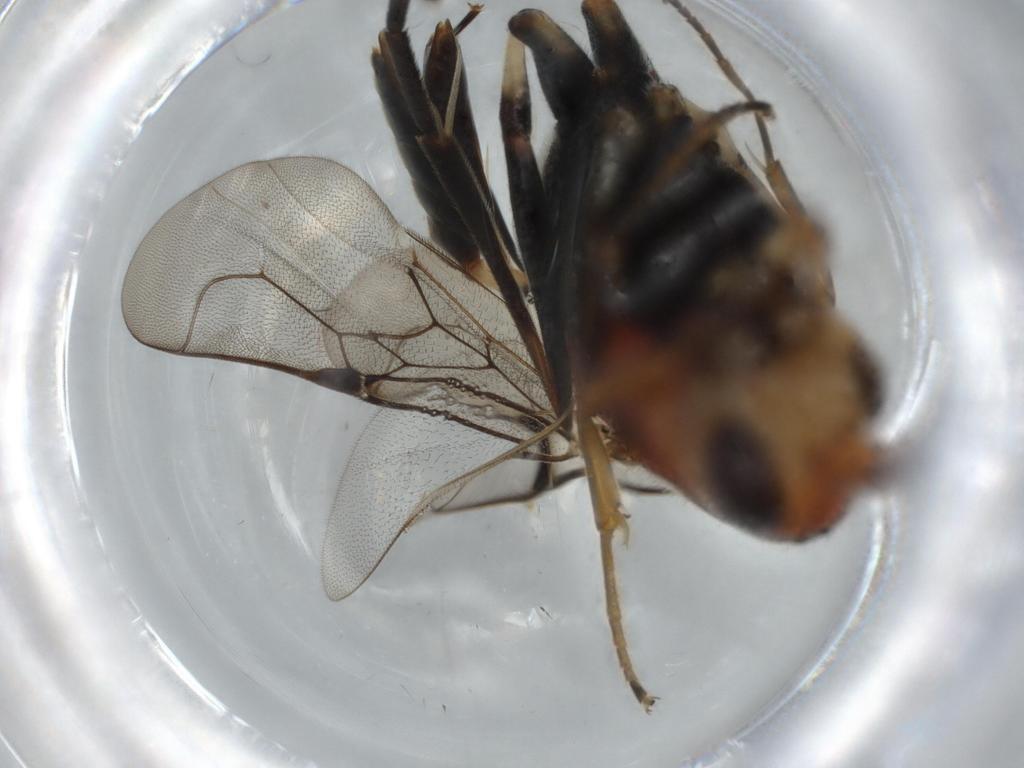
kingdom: Animalia
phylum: Arthropoda
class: Insecta
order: Hymenoptera
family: Evaniidae
